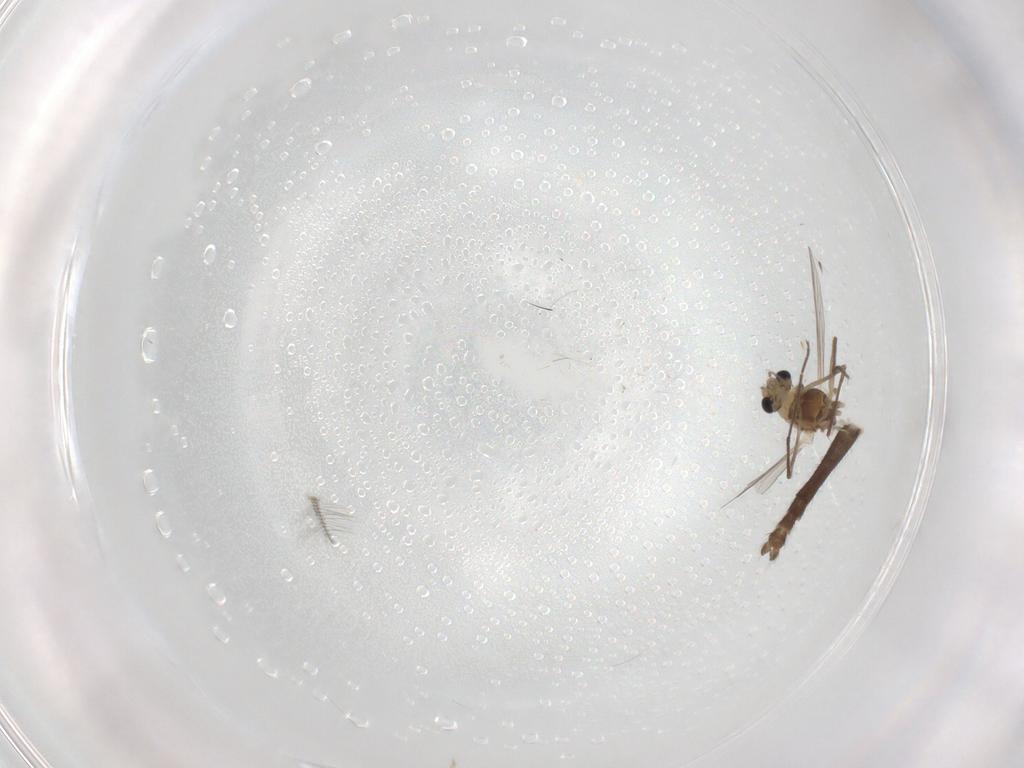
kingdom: Animalia
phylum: Arthropoda
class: Insecta
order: Diptera
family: Chironomidae
